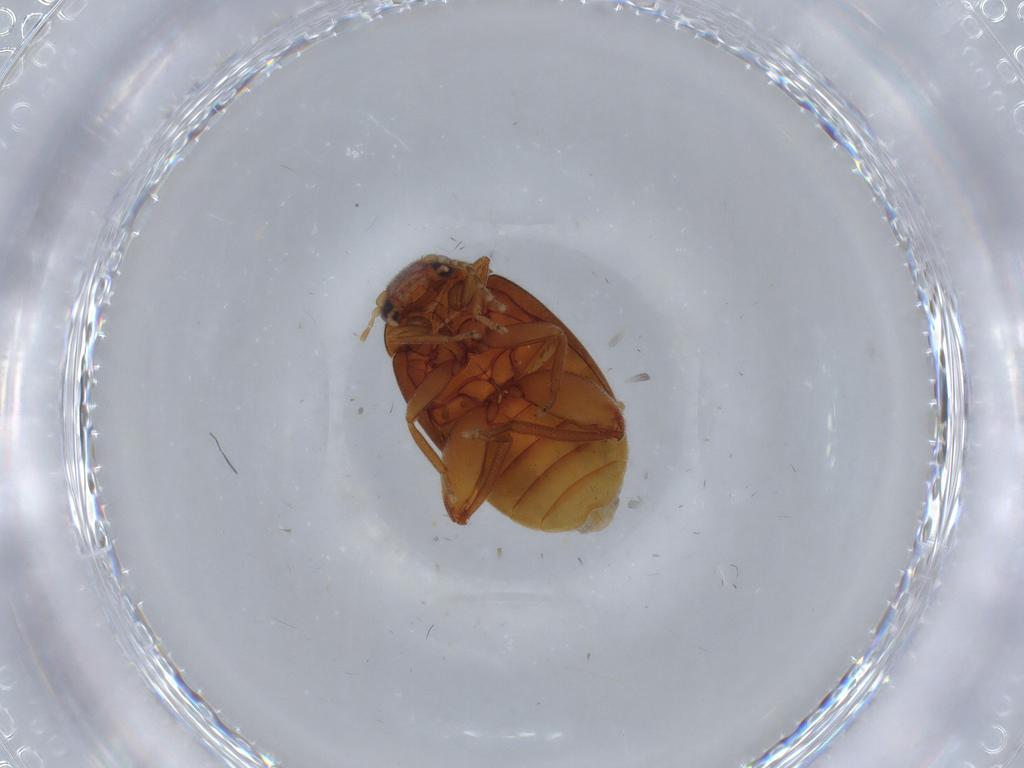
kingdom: Animalia
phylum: Arthropoda
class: Insecta
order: Coleoptera
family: Scirtidae
